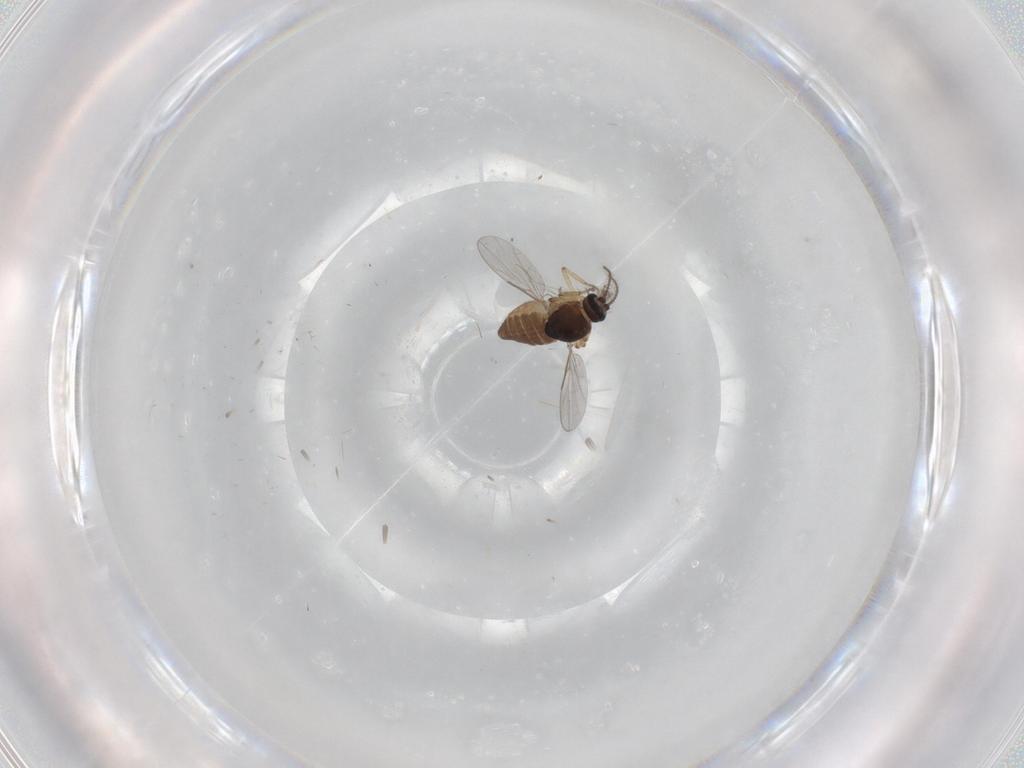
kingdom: Animalia
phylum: Arthropoda
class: Insecta
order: Diptera
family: Ceratopogonidae
